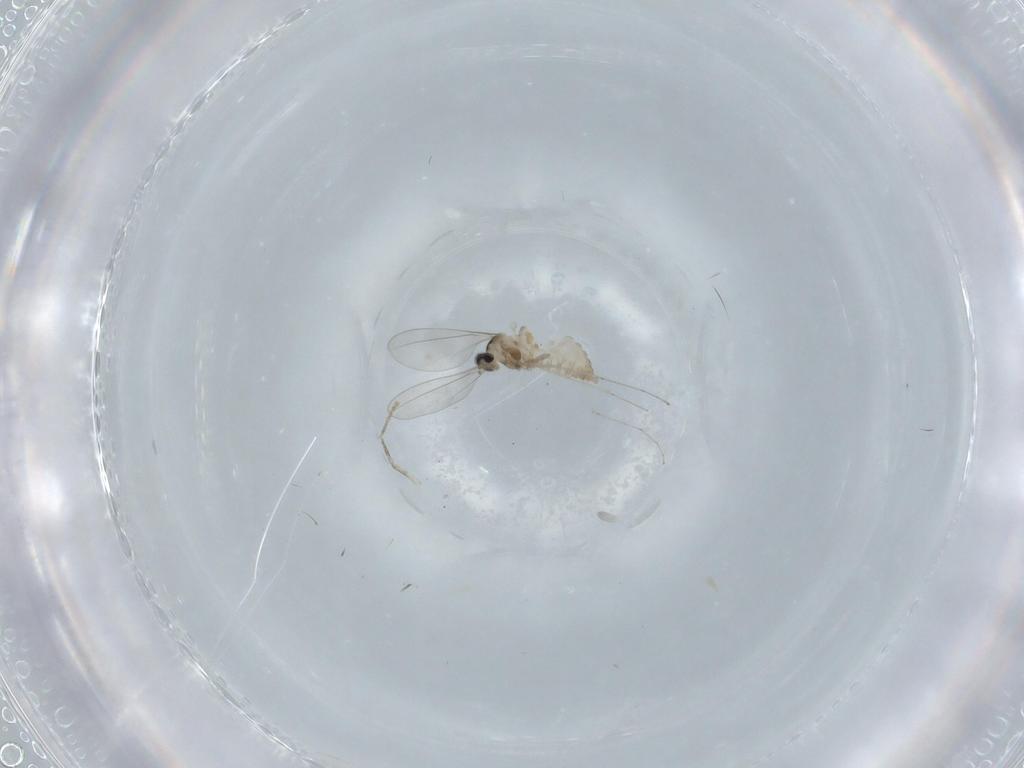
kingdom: Animalia
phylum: Arthropoda
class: Insecta
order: Diptera
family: Cecidomyiidae
